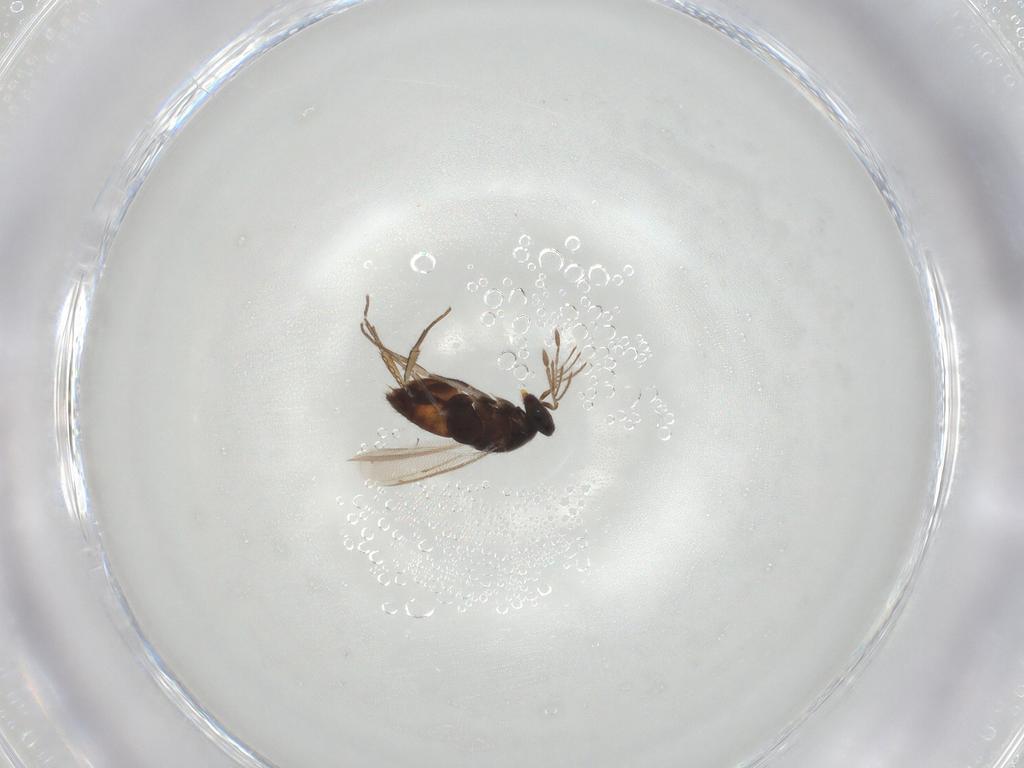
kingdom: Animalia
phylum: Arthropoda
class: Insecta
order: Hymenoptera
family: Eulophidae
